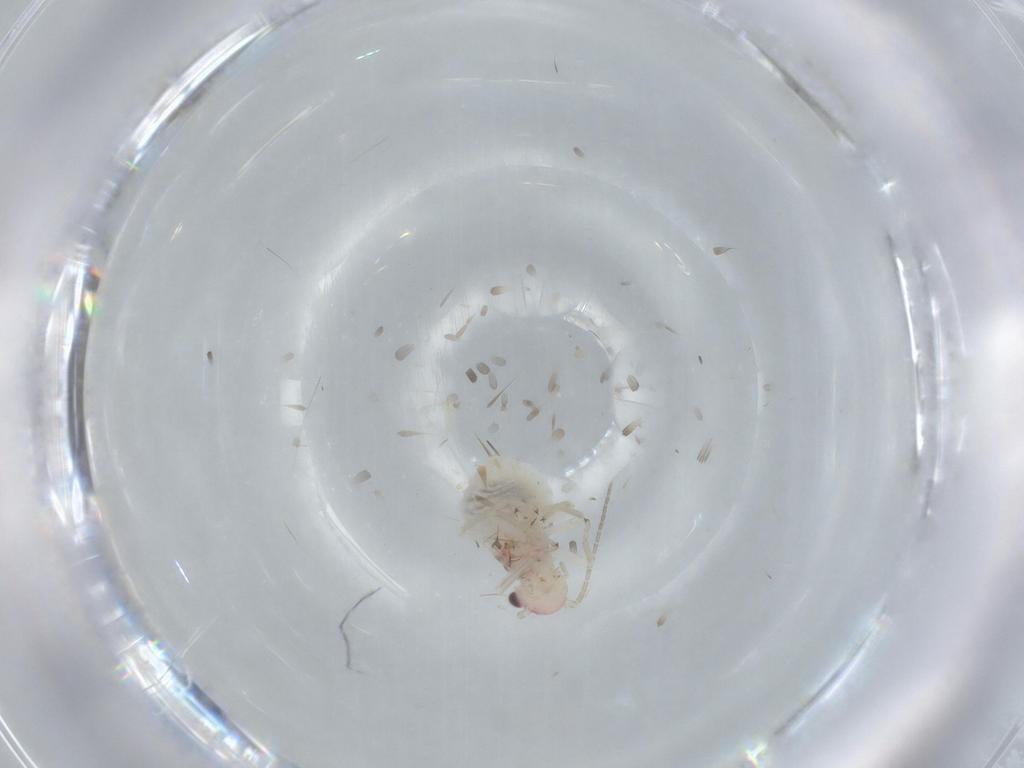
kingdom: Animalia
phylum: Arthropoda
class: Insecta
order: Psocodea
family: Amphipsocidae
